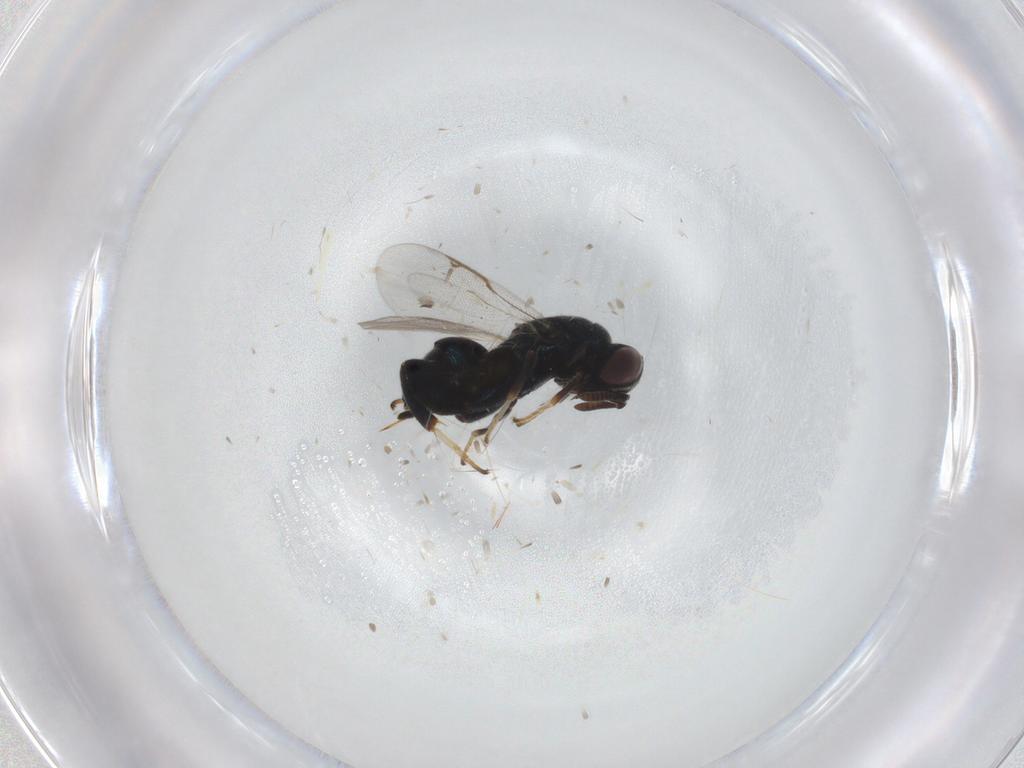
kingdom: Animalia
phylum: Arthropoda
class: Insecta
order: Hymenoptera
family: Torymidae
